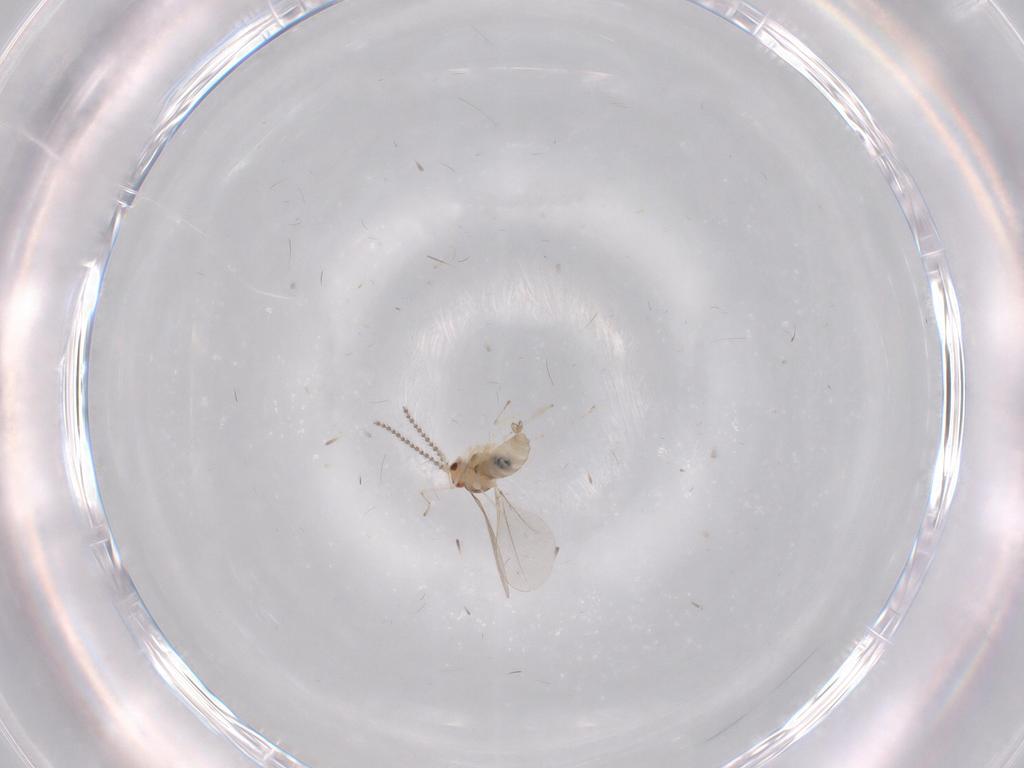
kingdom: Animalia
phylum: Arthropoda
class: Insecta
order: Diptera
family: Cecidomyiidae
